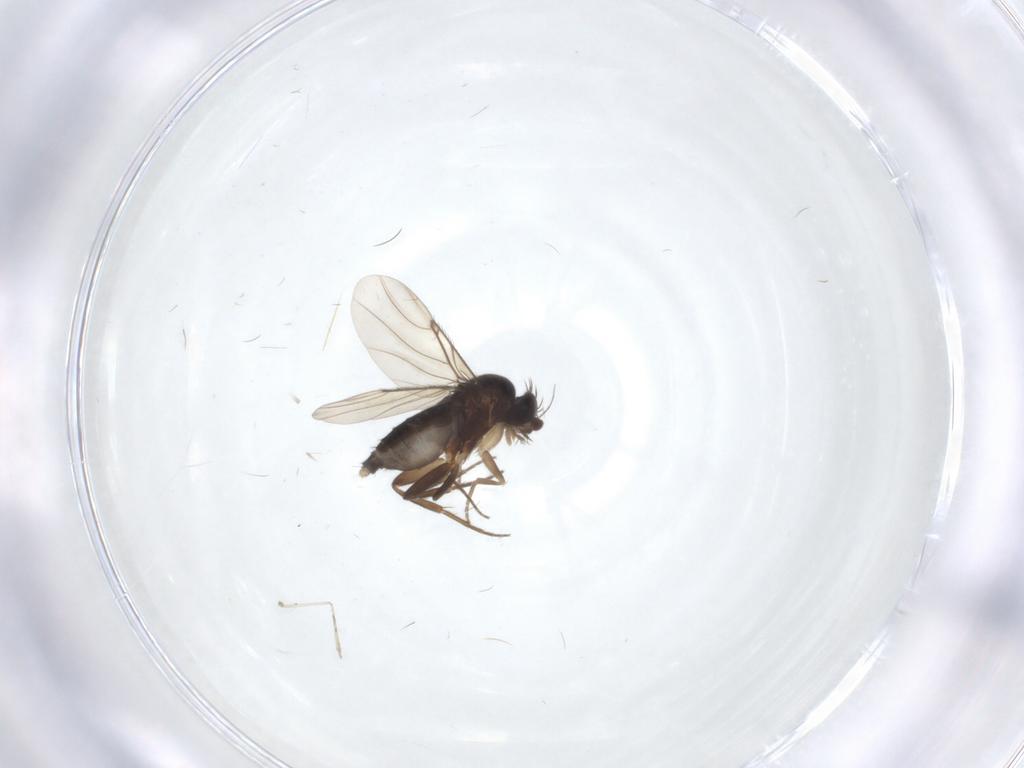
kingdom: Animalia
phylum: Arthropoda
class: Insecta
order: Diptera
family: Phoridae
